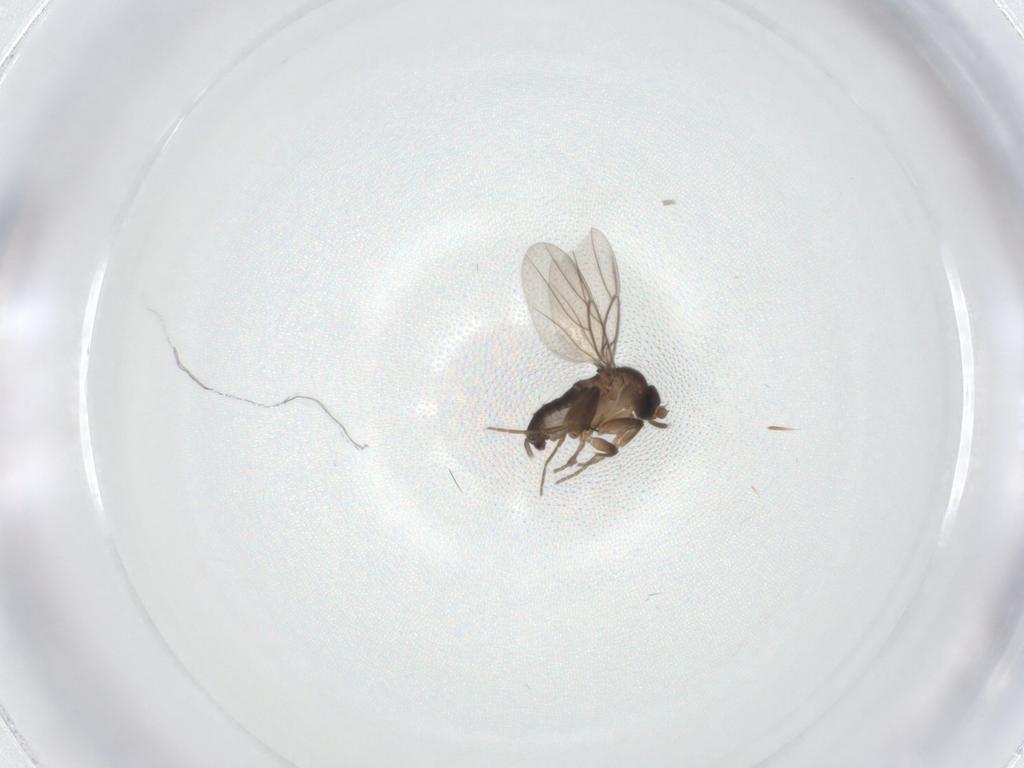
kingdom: Animalia
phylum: Arthropoda
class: Insecta
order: Diptera
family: Phoridae
